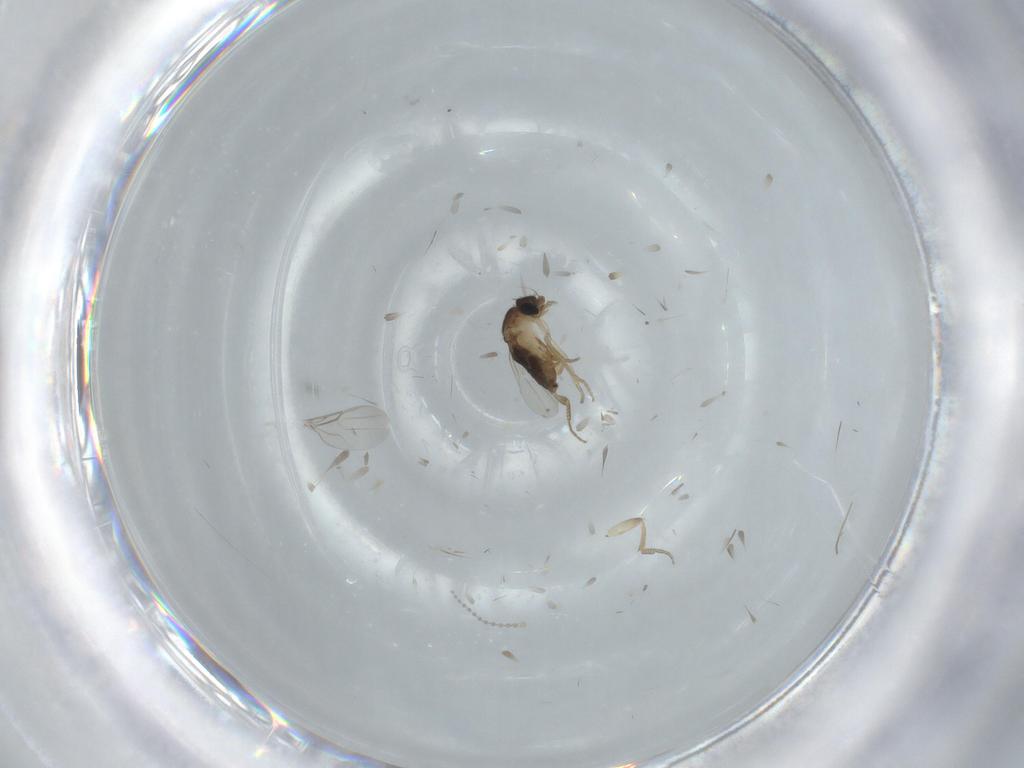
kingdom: Animalia
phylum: Arthropoda
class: Insecta
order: Diptera
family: Phoridae
